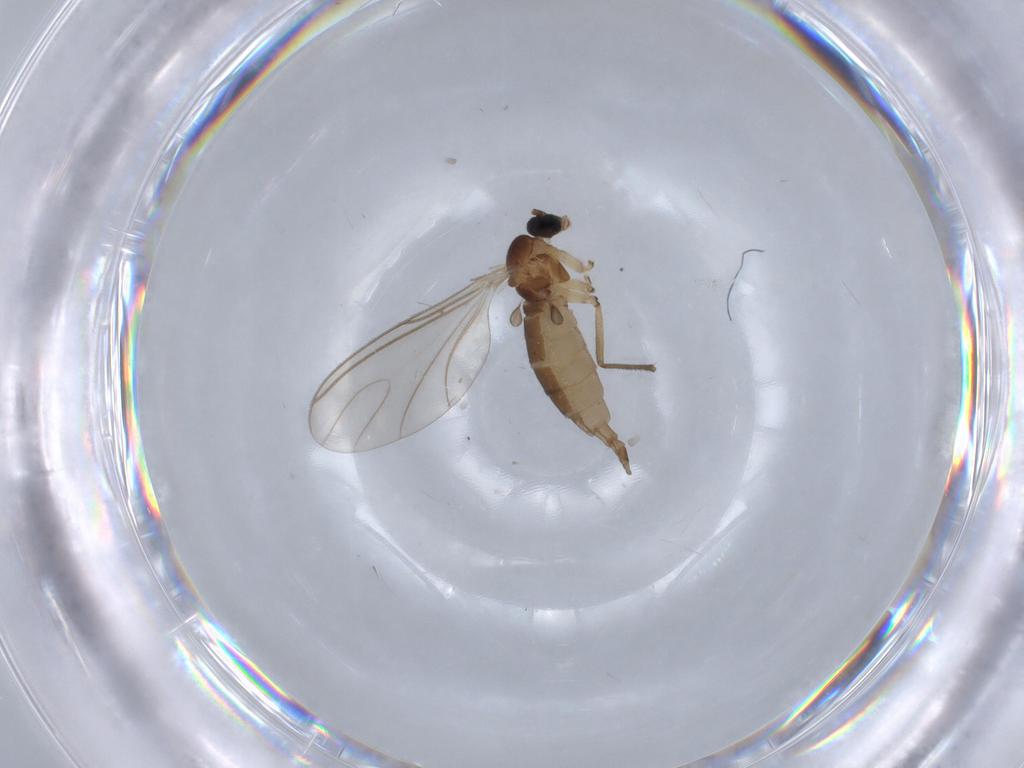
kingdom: Animalia
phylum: Arthropoda
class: Insecta
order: Diptera
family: Sciaridae
